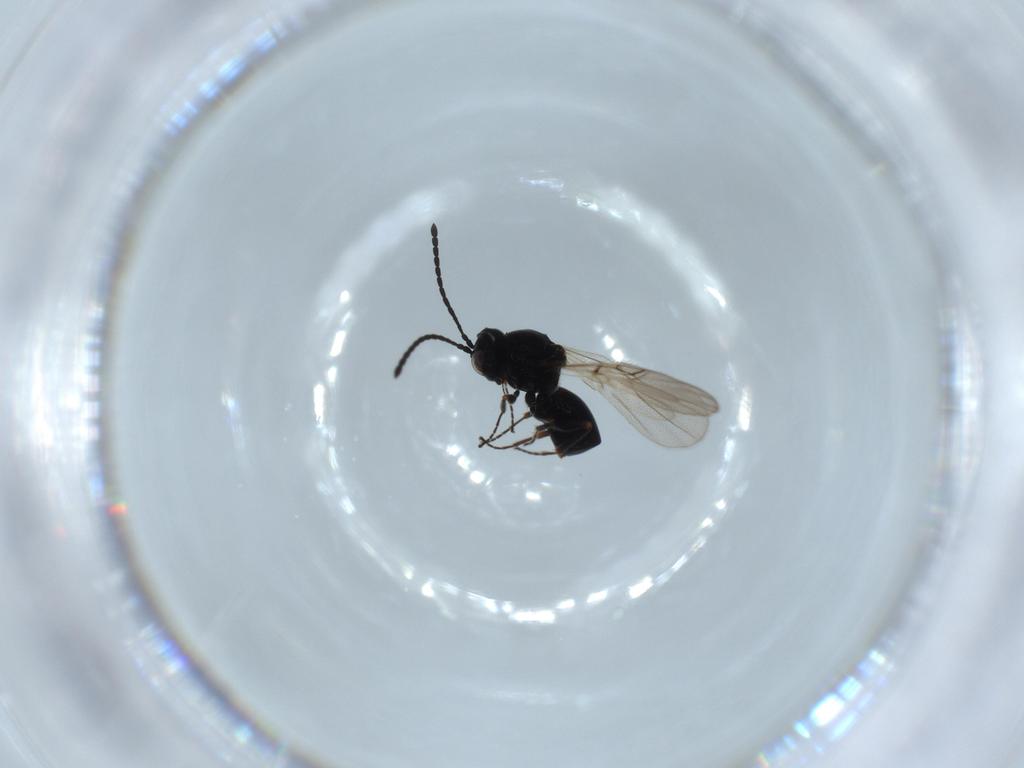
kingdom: Animalia
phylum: Arthropoda
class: Insecta
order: Hymenoptera
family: Figitidae
